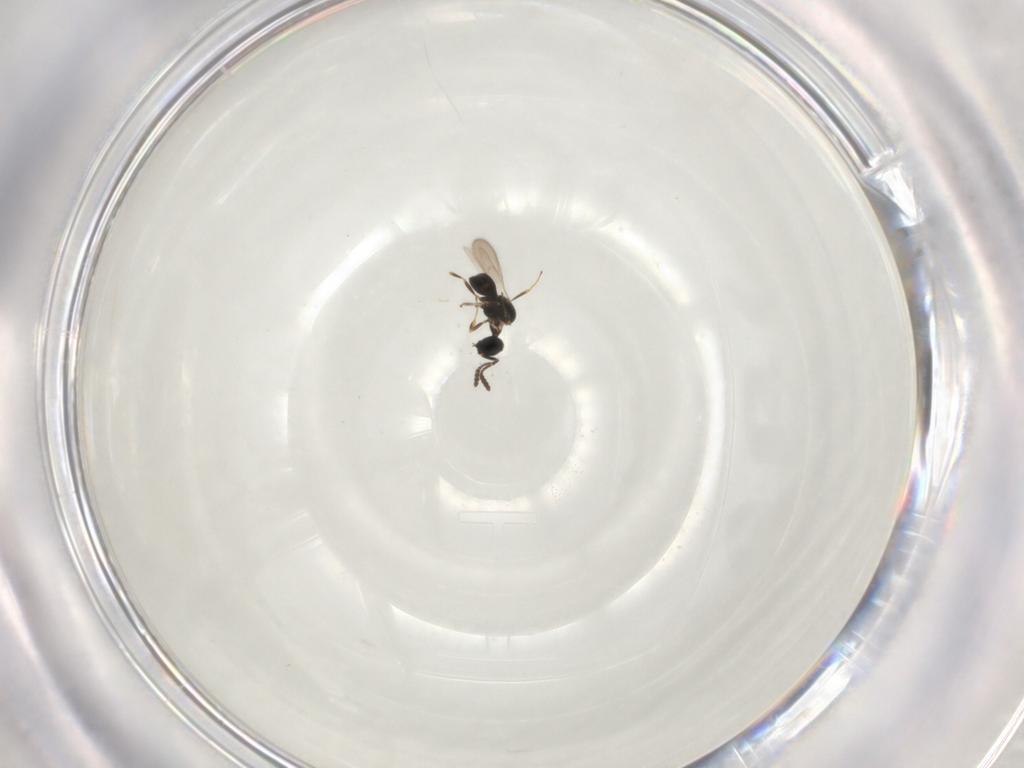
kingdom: Animalia
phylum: Arthropoda
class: Insecta
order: Hymenoptera
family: Scelionidae
